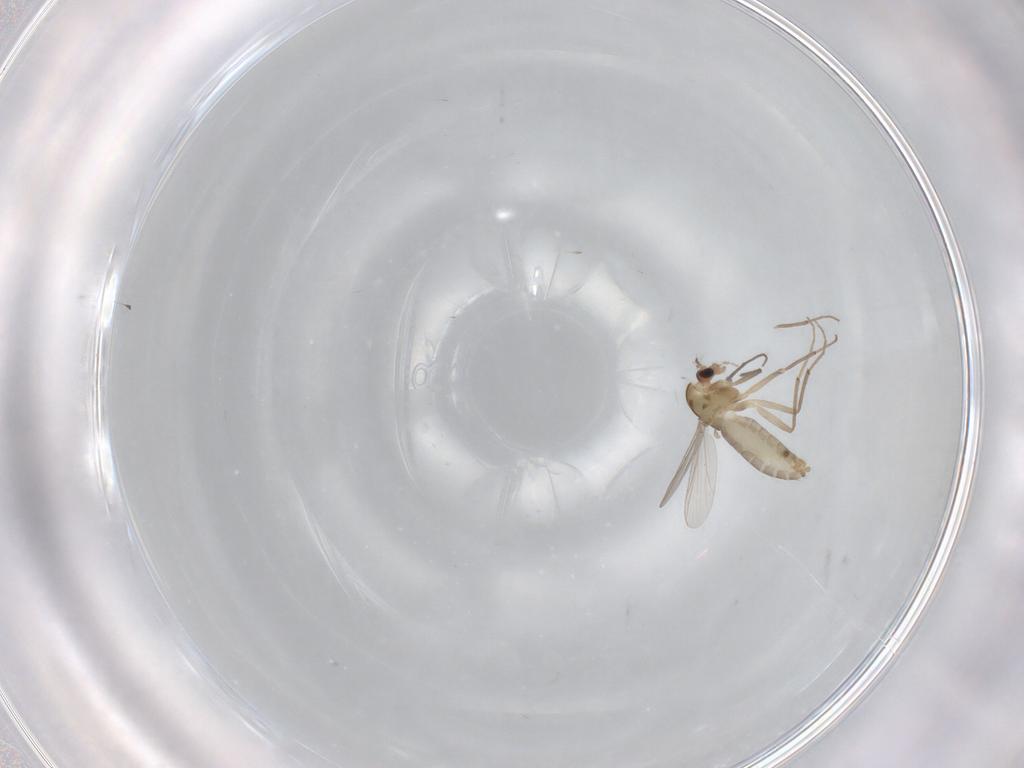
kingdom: Animalia
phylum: Arthropoda
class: Insecta
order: Diptera
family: Chironomidae
